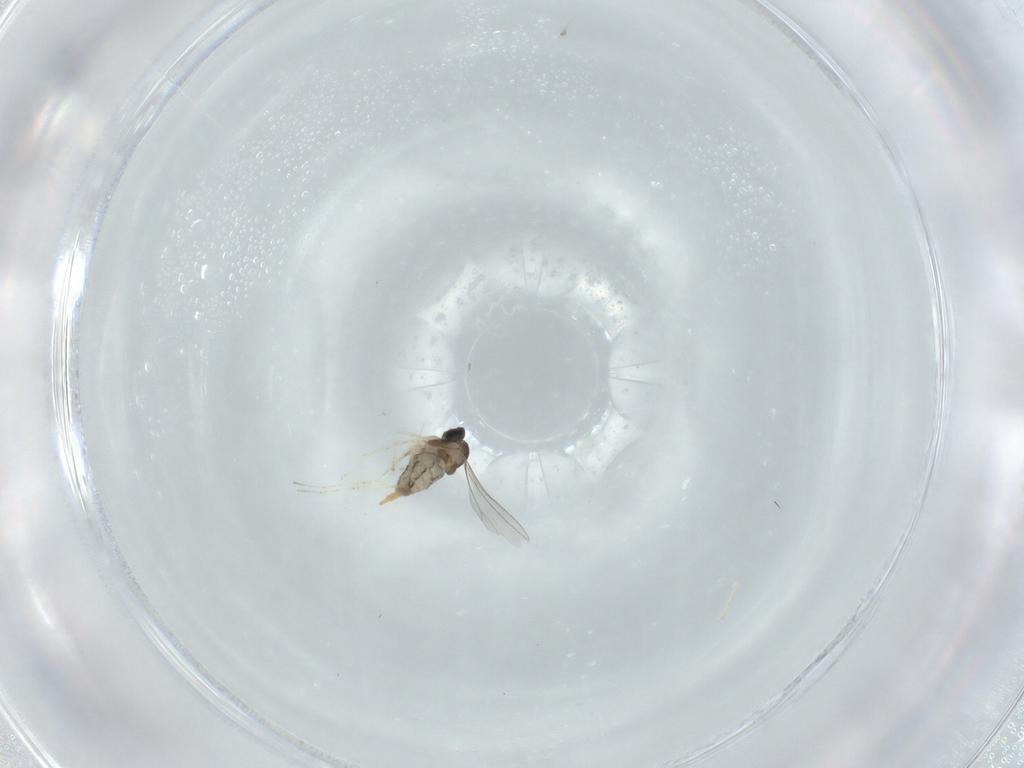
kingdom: Animalia
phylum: Arthropoda
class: Insecta
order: Diptera
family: Cecidomyiidae
